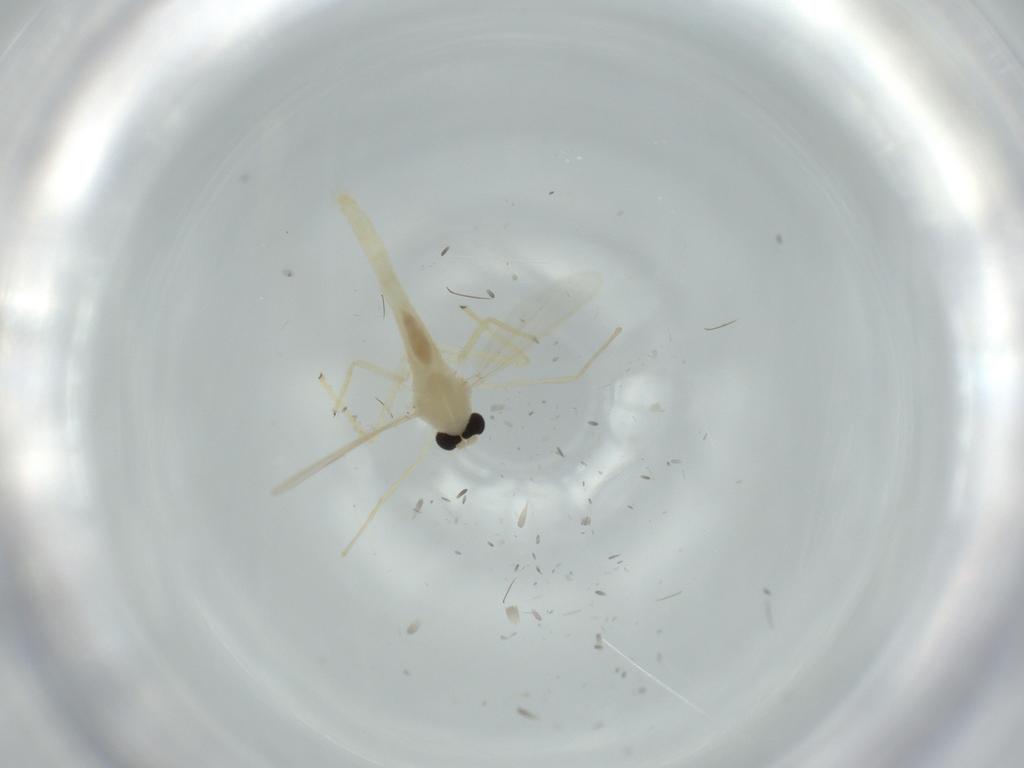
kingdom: Animalia
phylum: Arthropoda
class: Insecta
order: Diptera
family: Chironomidae
